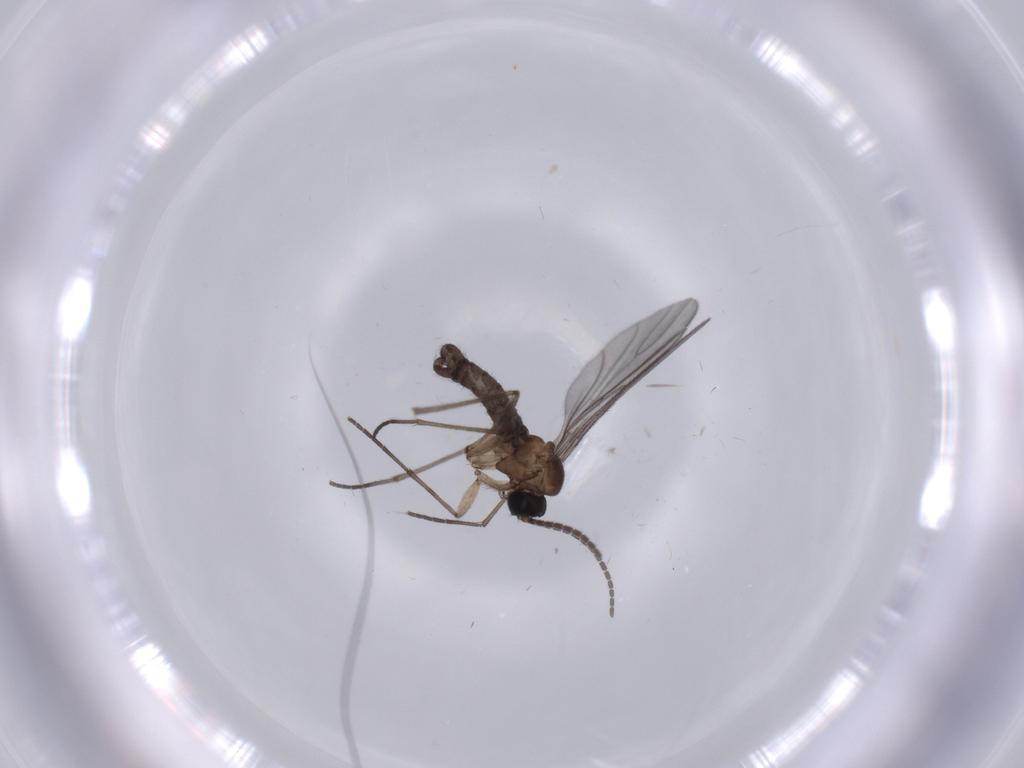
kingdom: Animalia
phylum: Arthropoda
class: Insecta
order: Diptera
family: Sciaridae
